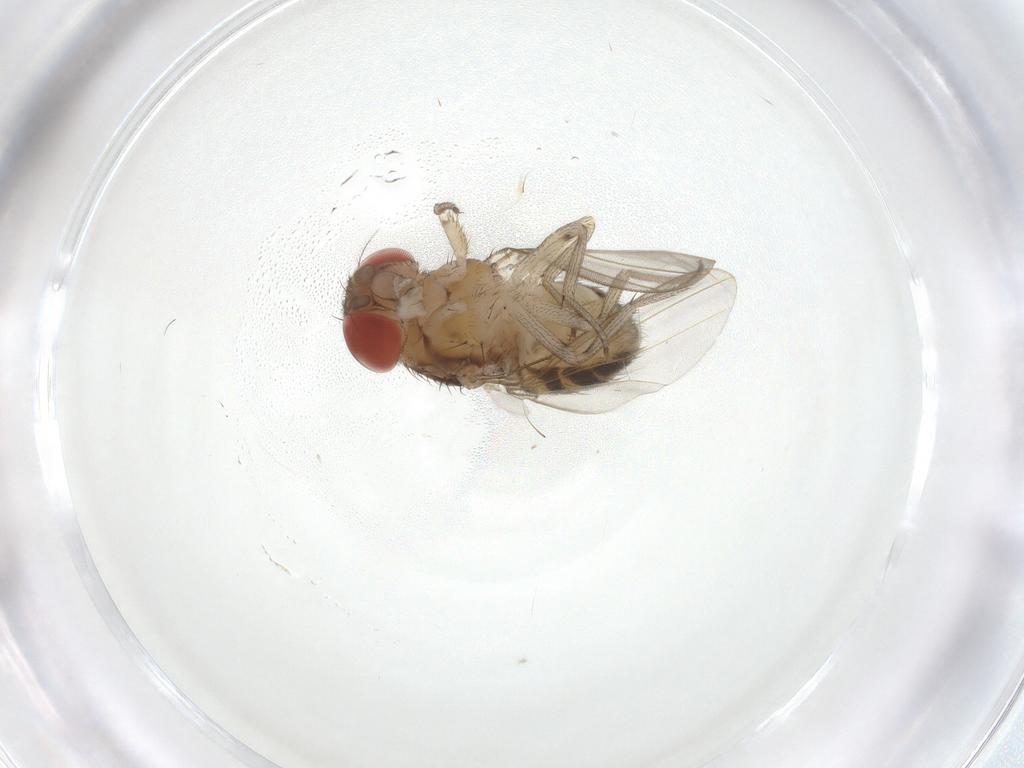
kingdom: Animalia
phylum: Arthropoda
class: Insecta
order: Diptera
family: Drosophilidae
